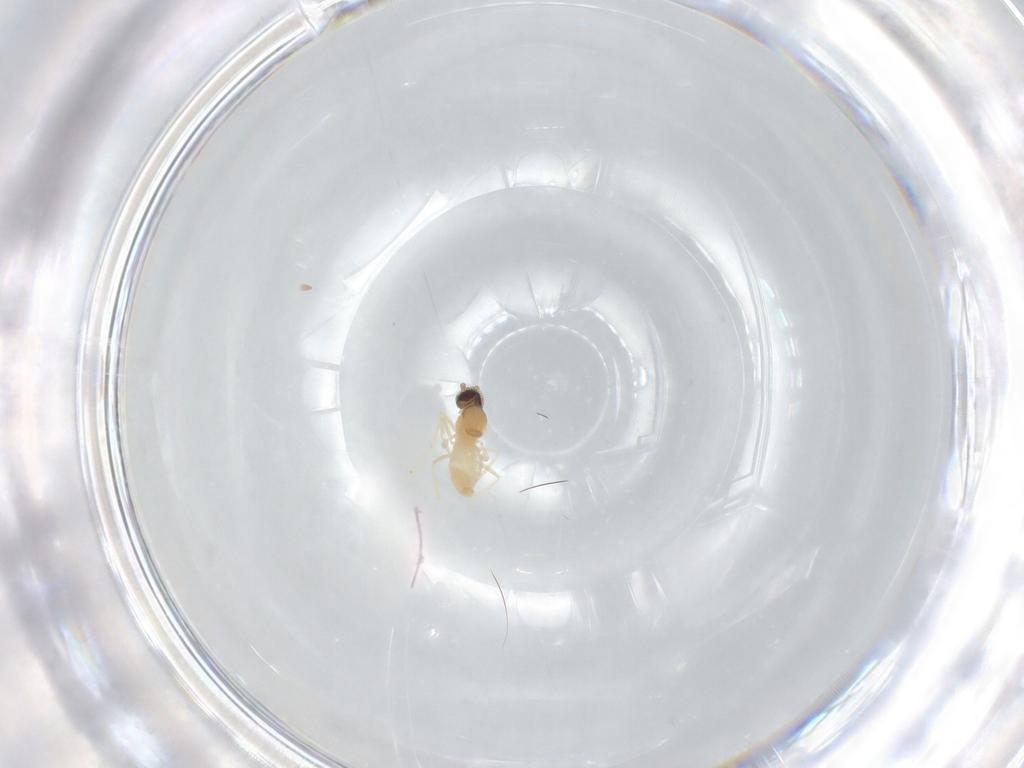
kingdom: Animalia
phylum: Arthropoda
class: Insecta
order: Diptera
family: Cecidomyiidae
